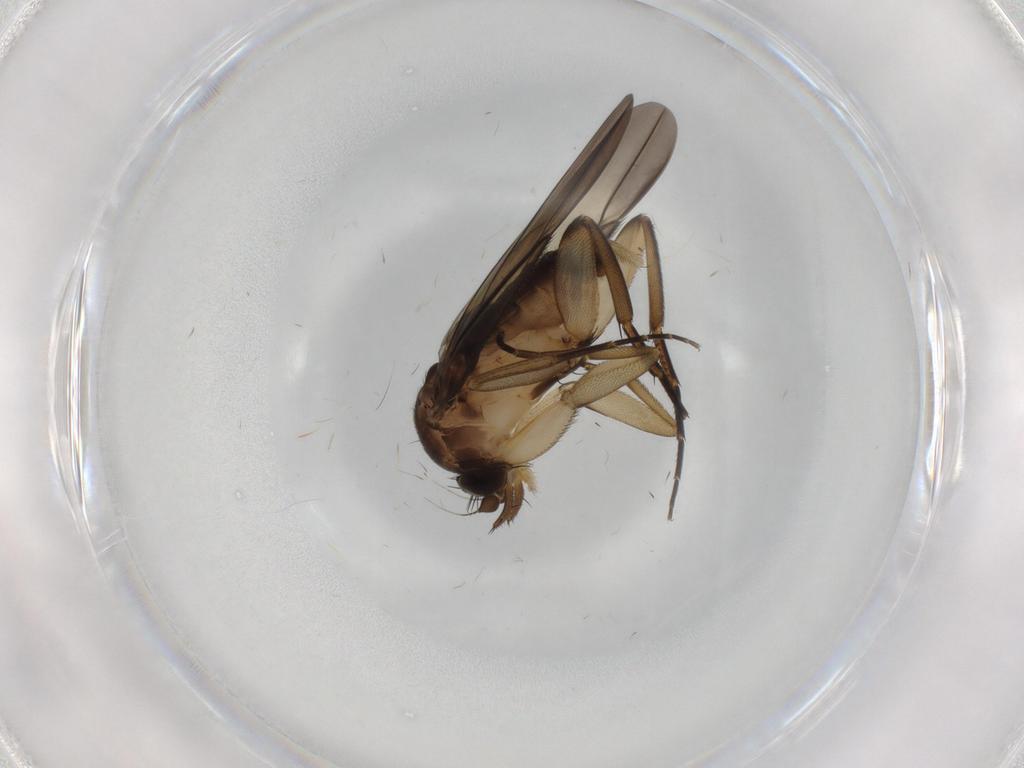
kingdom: Animalia
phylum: Arthropoda
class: Insecta
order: Diptera
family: Phoridae
